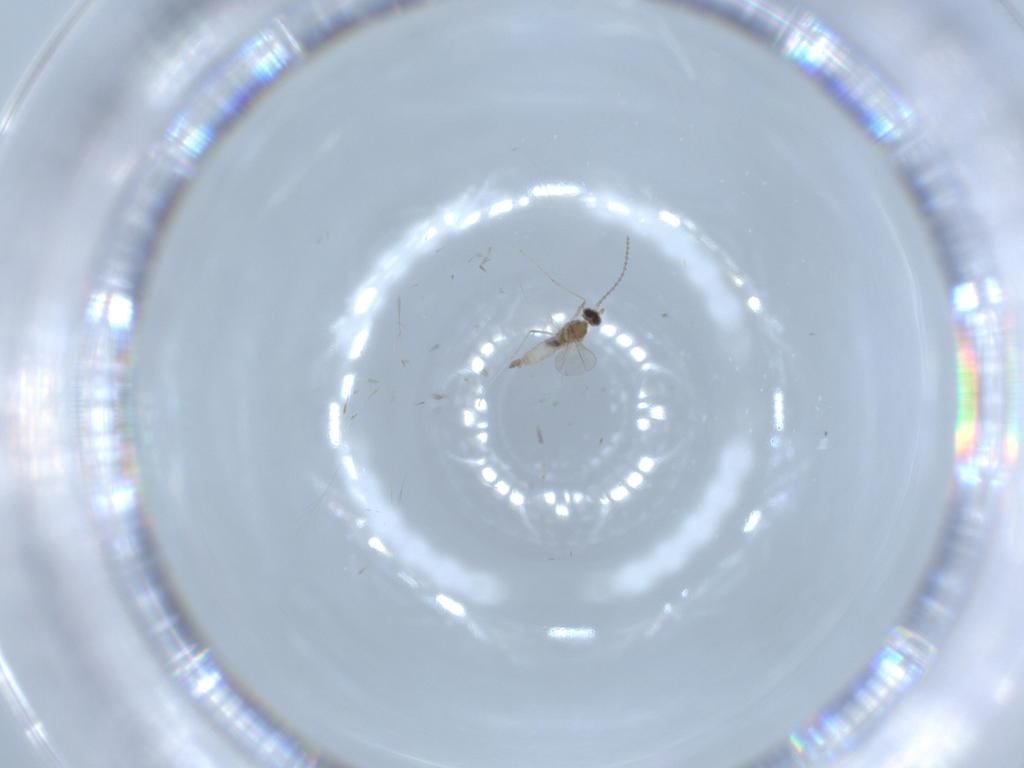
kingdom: Animalia
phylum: Arthropoda
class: Insecta
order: Diptera
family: Cecidomyiidae
